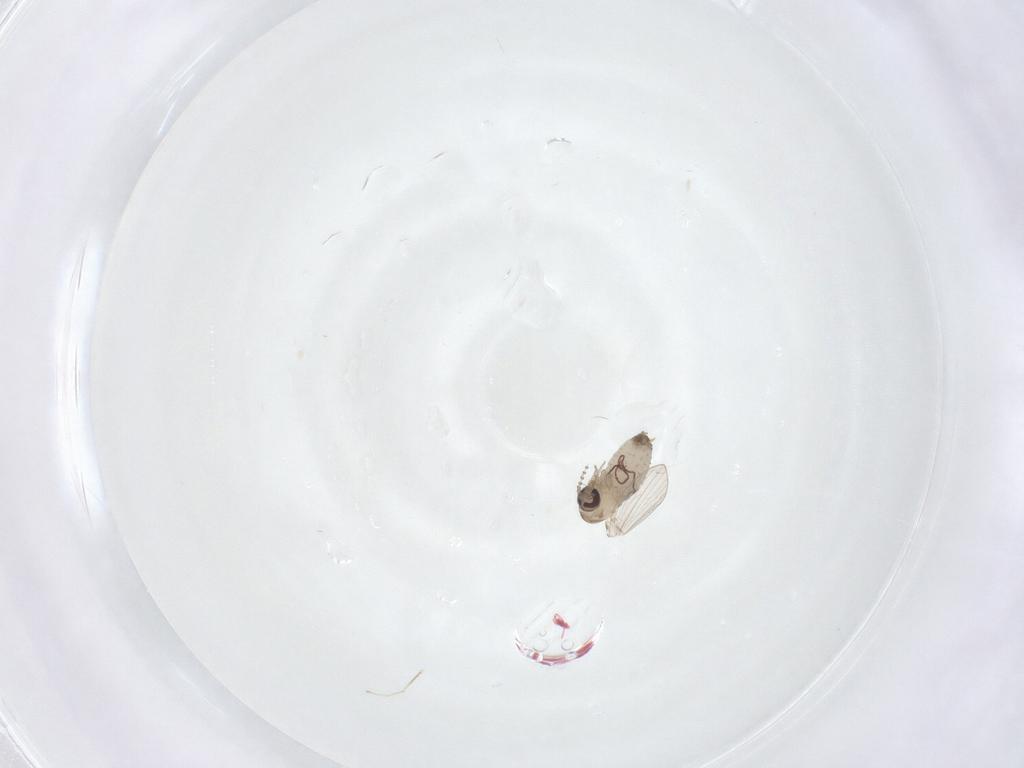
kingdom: Animalia
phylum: Arthropoda
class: Insecta
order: Diptera
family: Psychodidae
